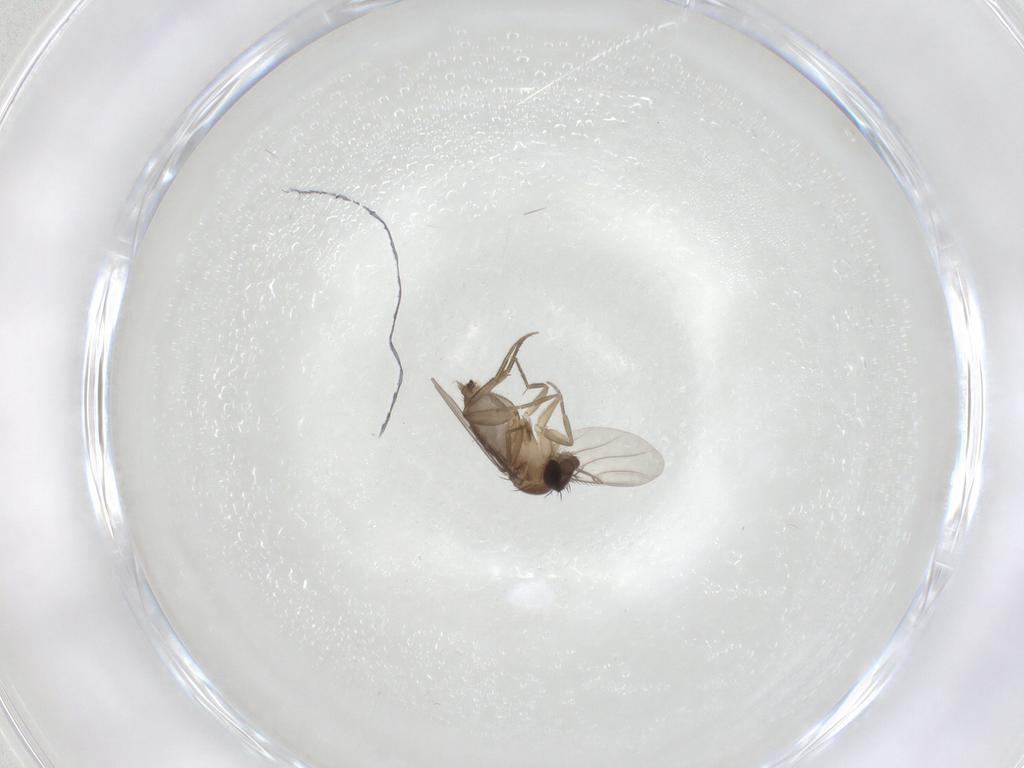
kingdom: Animalia
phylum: Arthropoda
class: Insecta
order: Diptera
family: Phoridae
